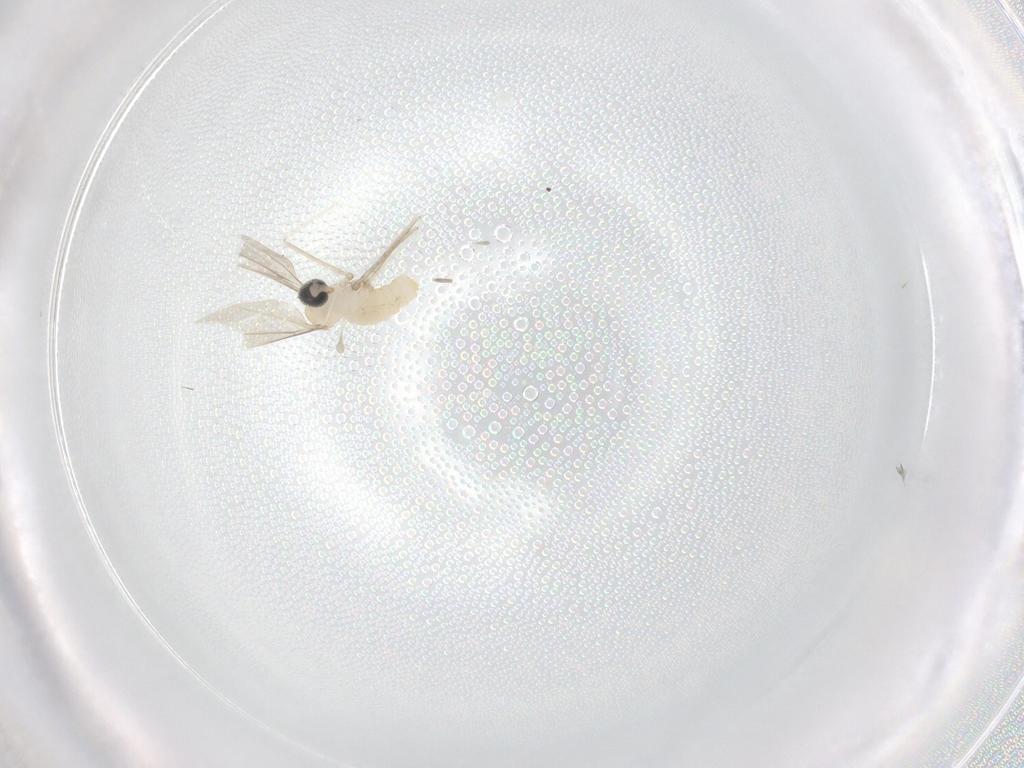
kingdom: Animalia
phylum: Arthropoda
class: Insecta
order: Diptera
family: Cecidomyiidae
